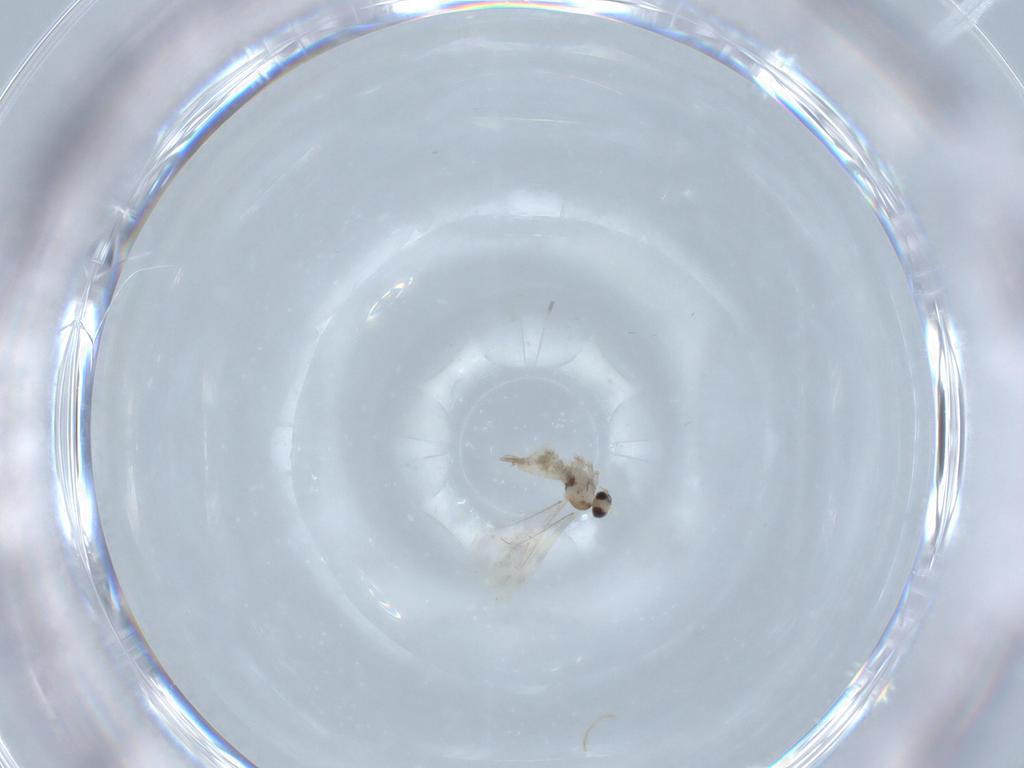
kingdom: Animalia
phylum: Arthropoda
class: Insecta
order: Diptera
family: Cecidomyiidae
